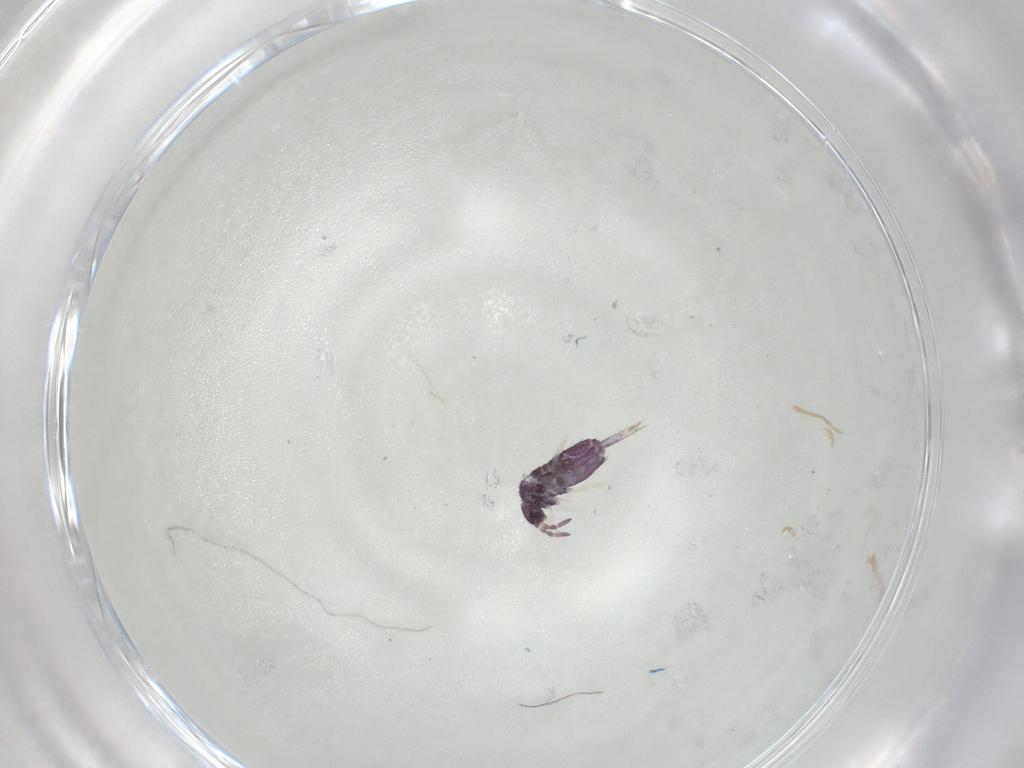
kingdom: Animalia
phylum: Arthropoda
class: Collembola
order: Entomobryomorpha
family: Entomobryidae
